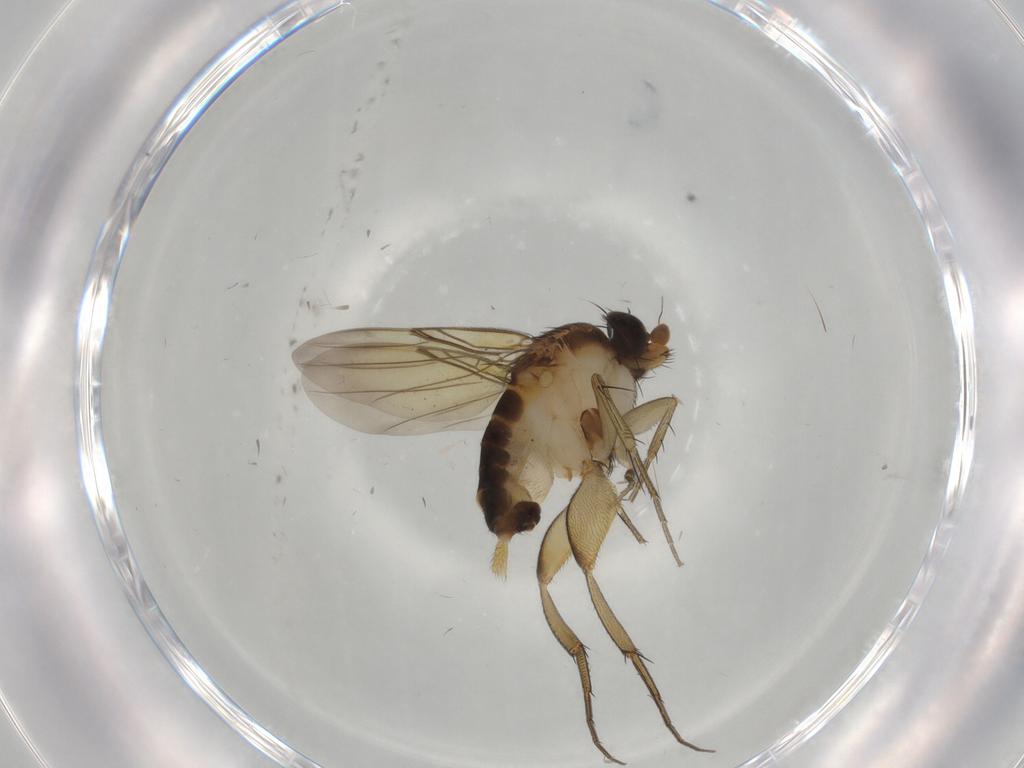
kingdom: Animalia
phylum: Arthropoda
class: Insecta
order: Diptera
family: Phoridae
